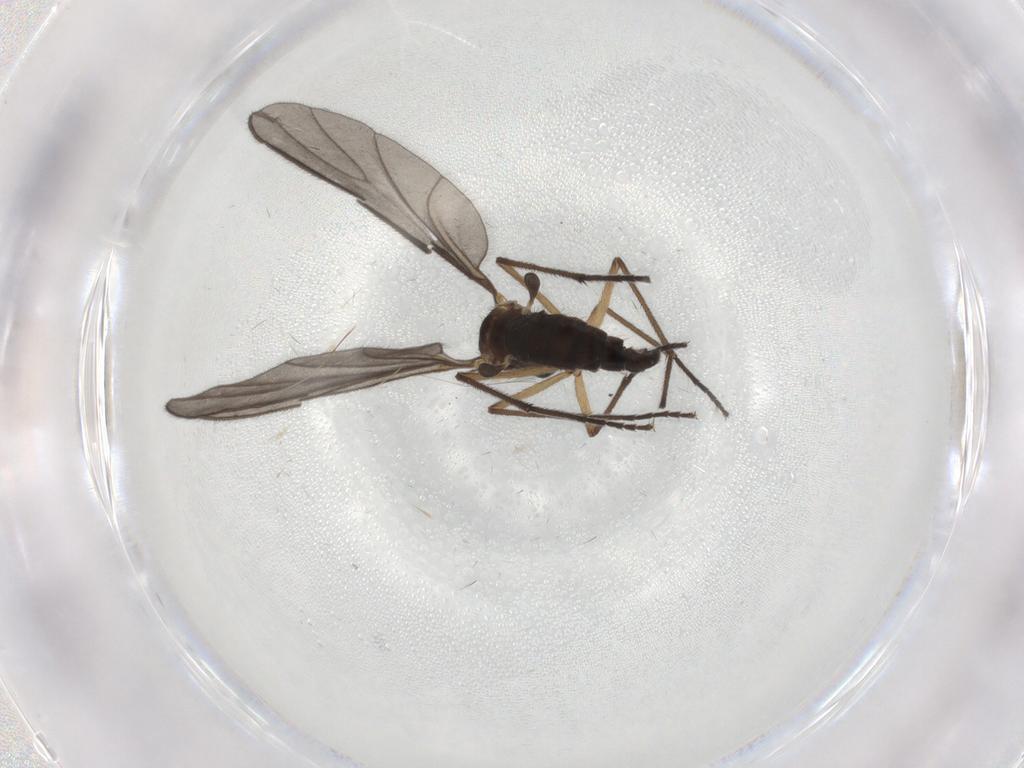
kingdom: Animalia
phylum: Arthropoda
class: Insecta
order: Diptera
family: Sciaridae
